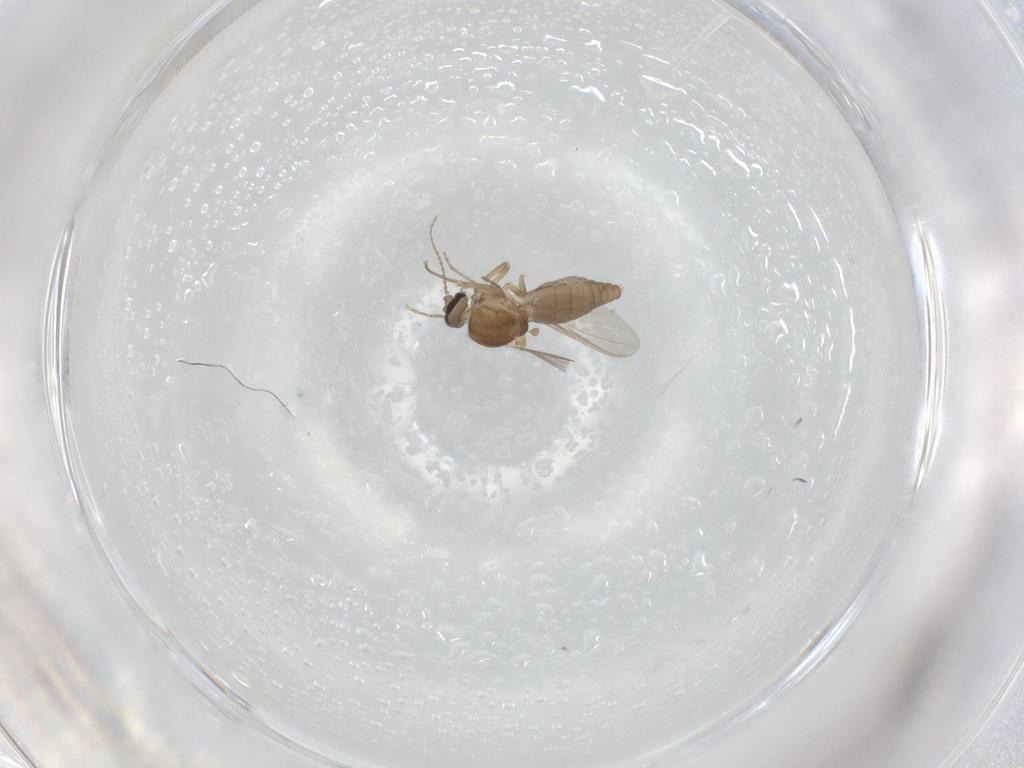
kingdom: Animalia
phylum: Arthropoda
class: Insecta
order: Diptera
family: Ceratopogonidae
